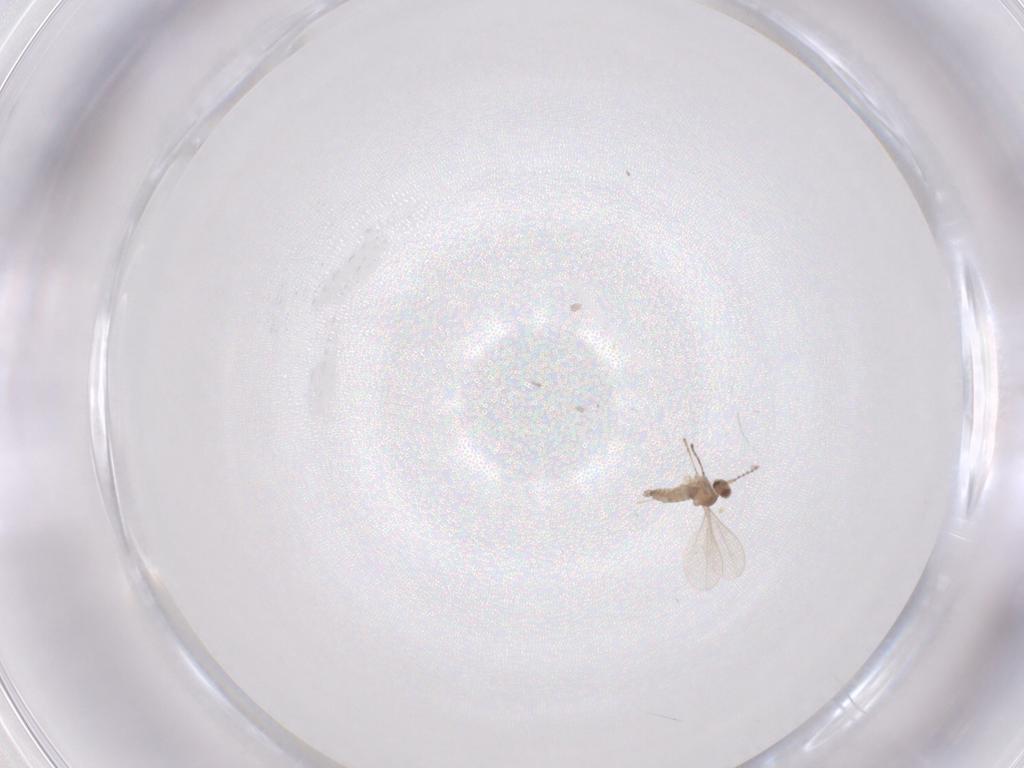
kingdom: Animalia
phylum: Arthropoda
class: Insecta
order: Diptera
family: Cecidomyiidae
